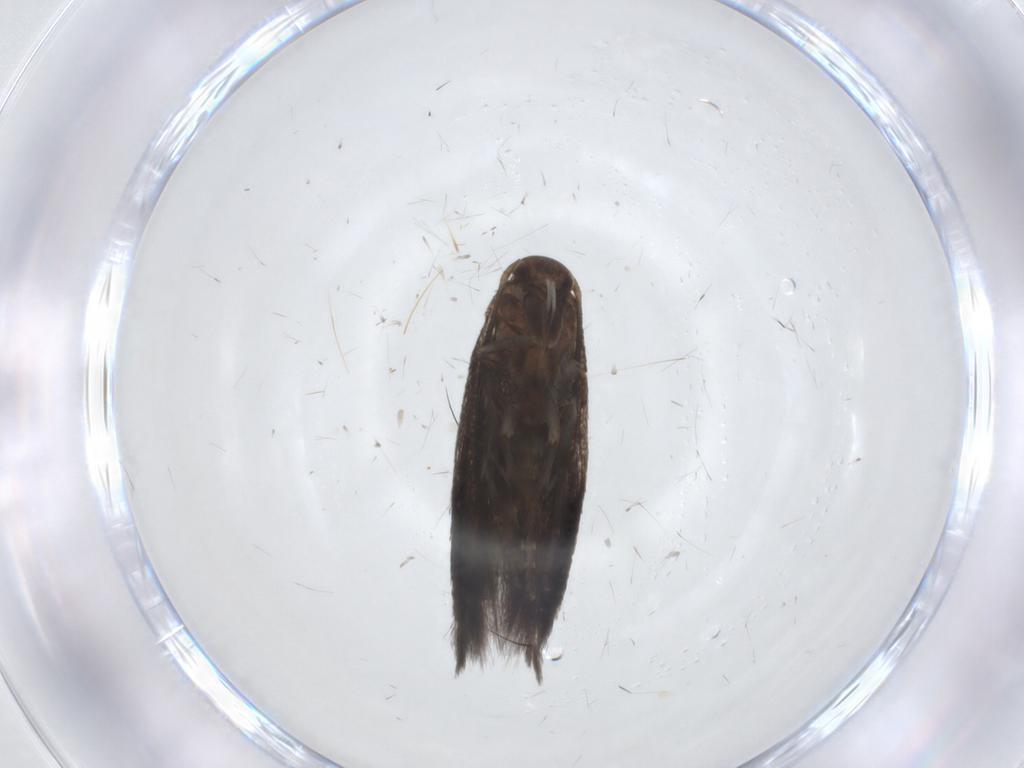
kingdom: Animalia
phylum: Arthropoda
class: Insecta
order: Lepidoptera
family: Elachistidae
